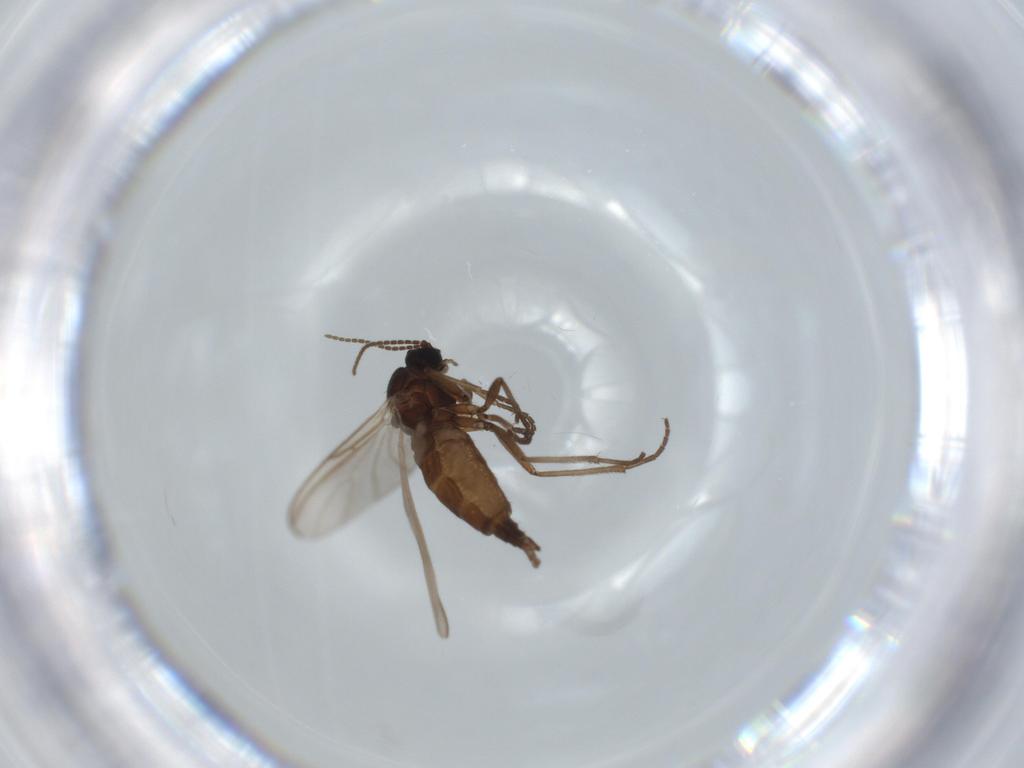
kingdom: Animalia
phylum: Arthropoda
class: Insecta
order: Diptera
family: Sciaridae
